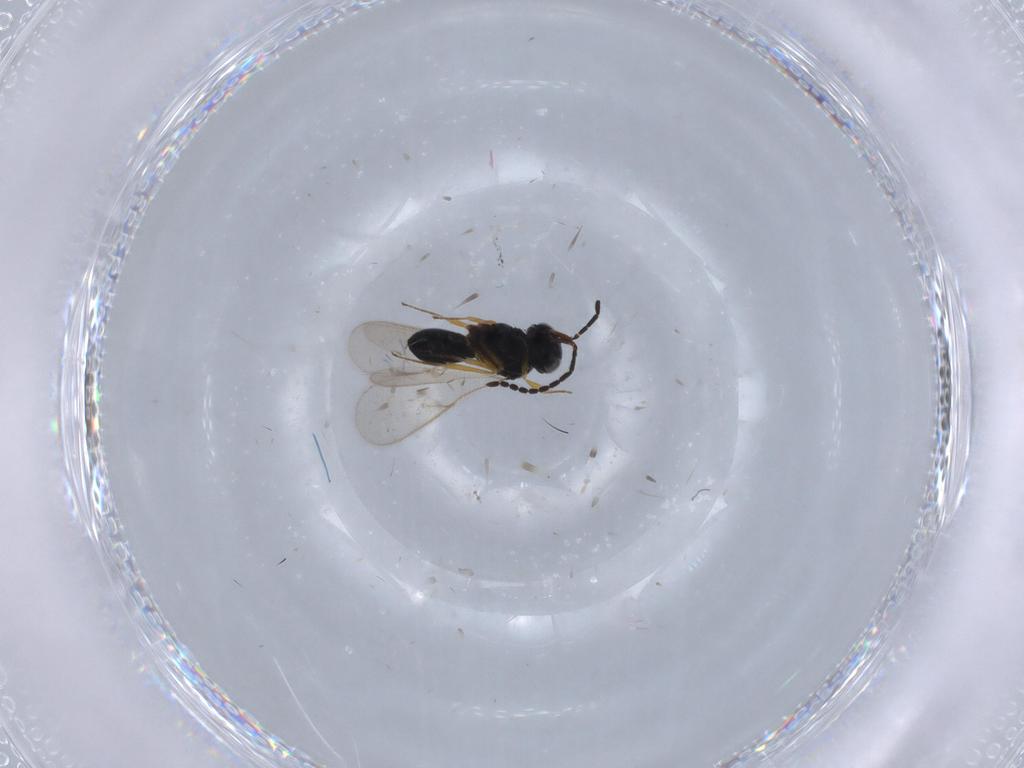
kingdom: Animalia
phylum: Arthropoda
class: Insecta
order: Hymenoptera
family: Scelionidae
